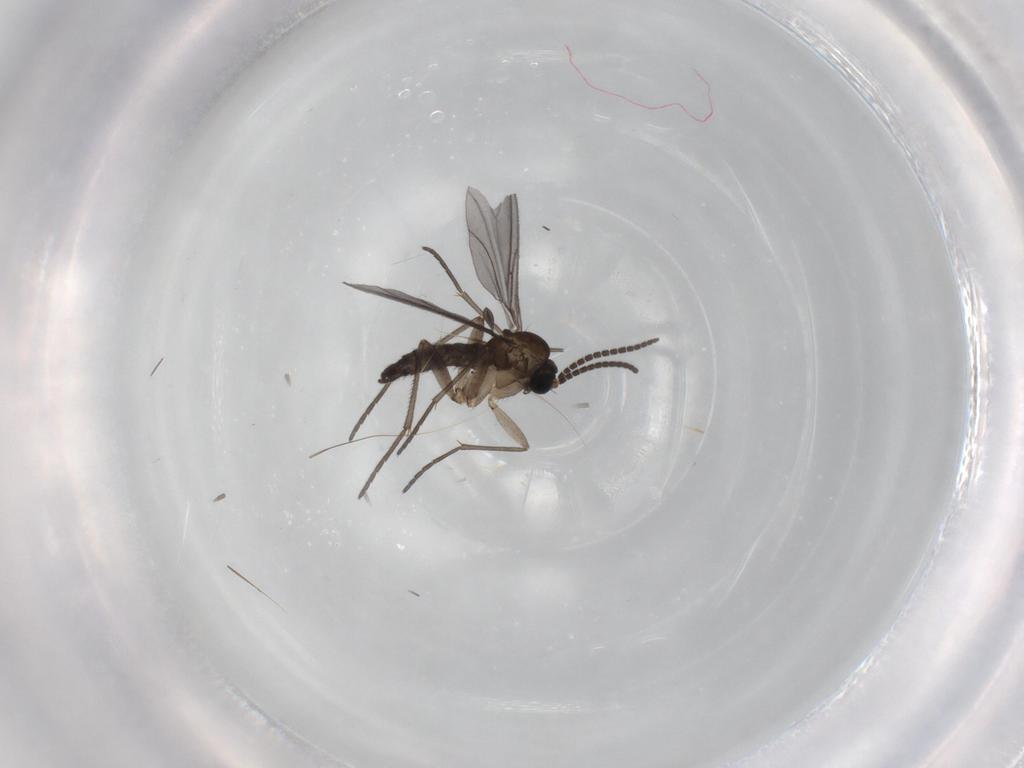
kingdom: Animalia
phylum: Arthropoda
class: Insecta
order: Diptera
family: Sciaridae
